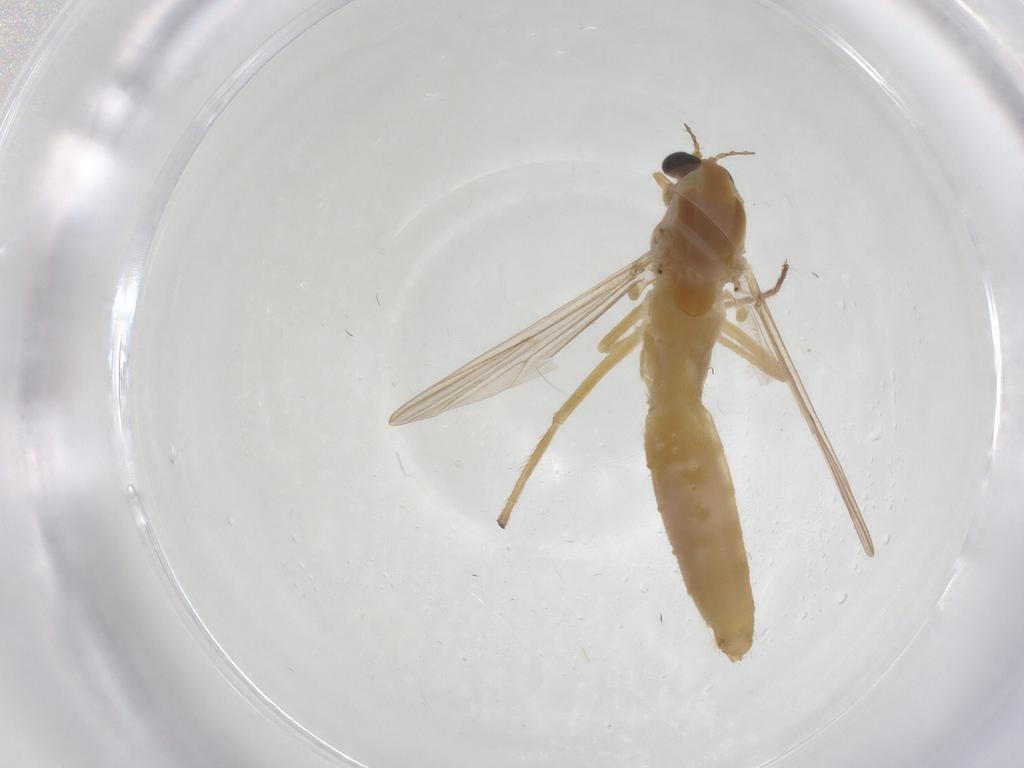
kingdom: Animalia
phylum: Arthropoda
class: Insecta
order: Diptera
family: Chironomidae
